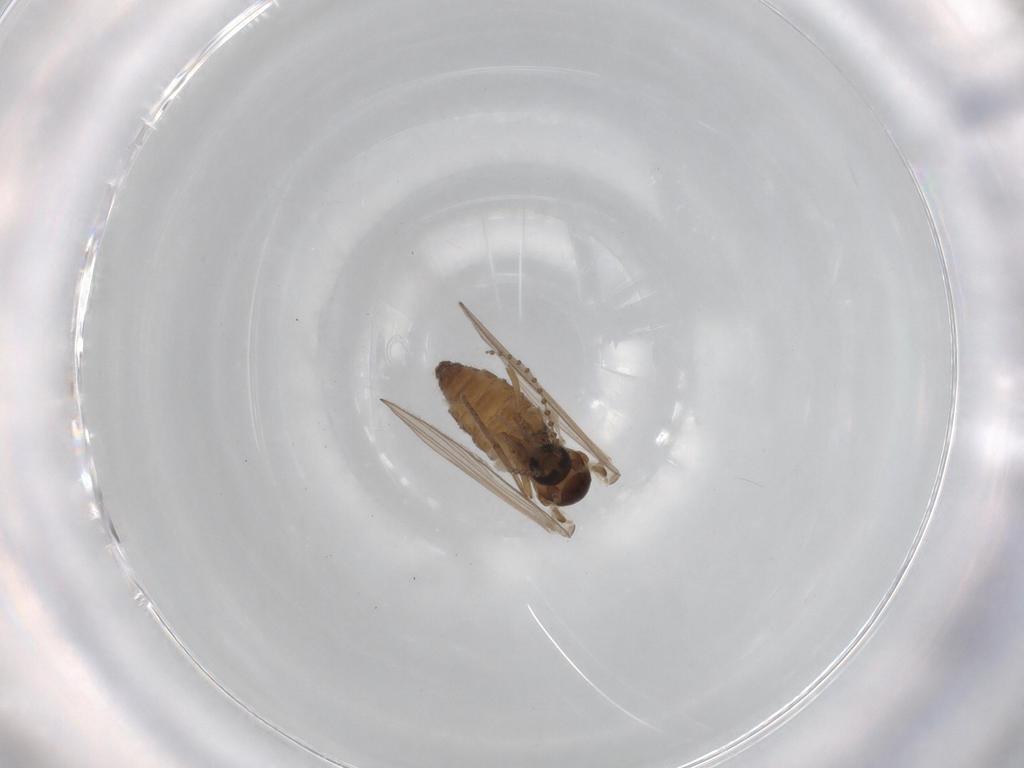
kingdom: Animalia
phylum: Arthropoda
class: Insecta
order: Diptera
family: Psychodidae
